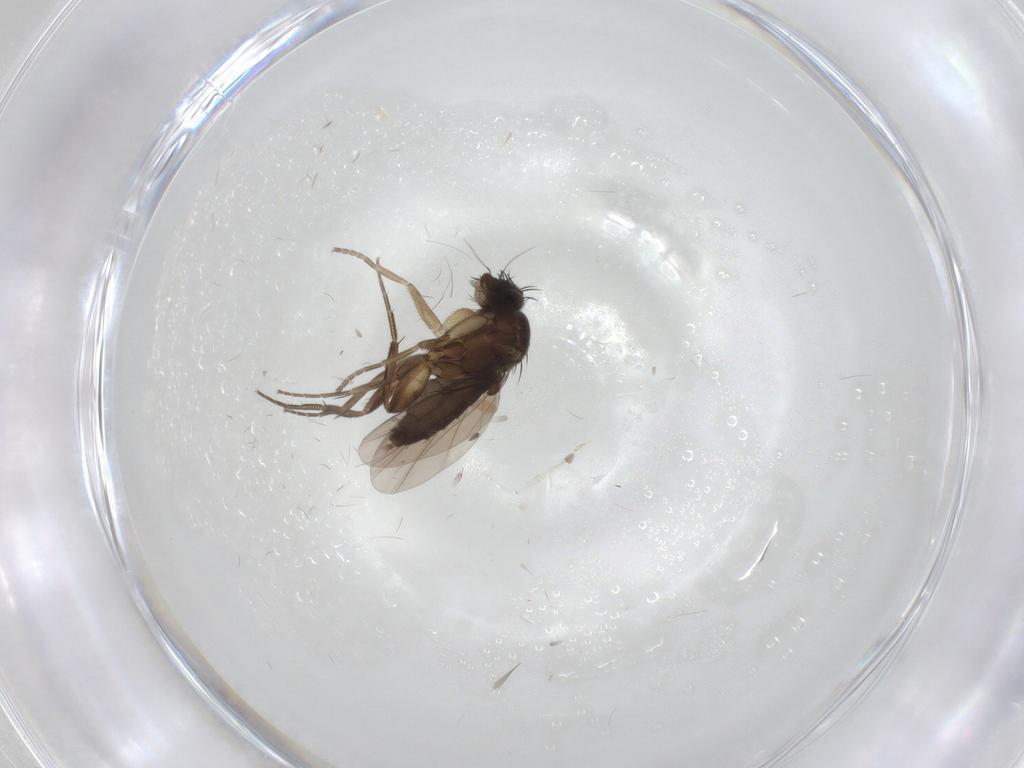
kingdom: Animalia
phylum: Arthropoda
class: Insecta
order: Diptera
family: Phoridae
